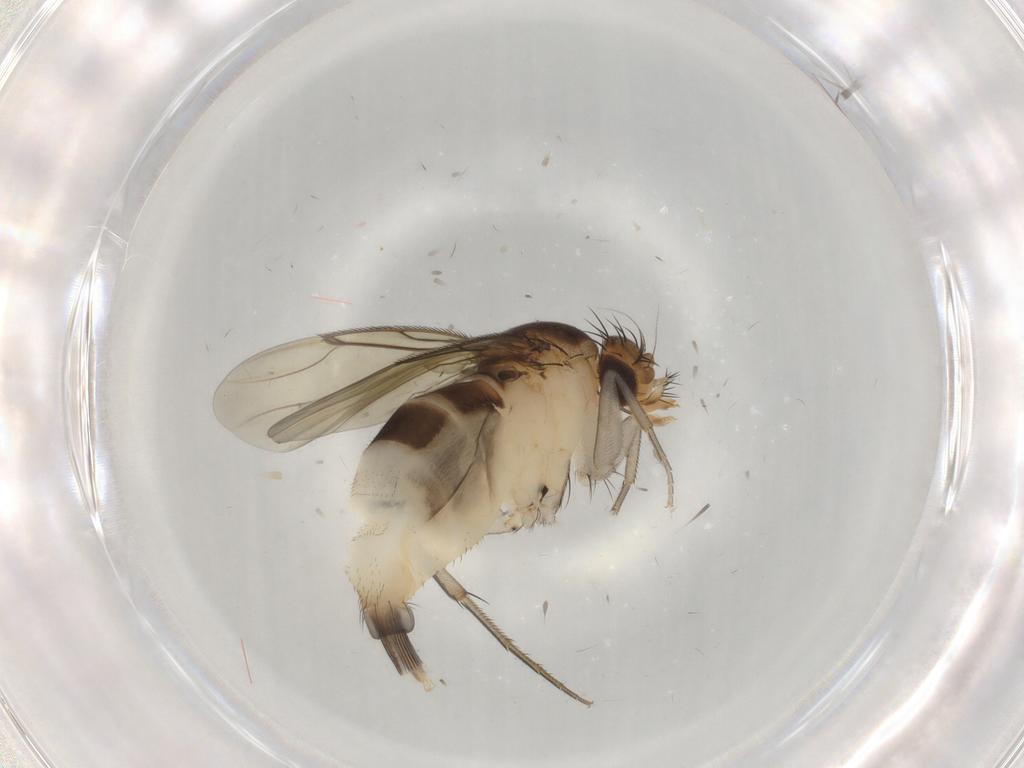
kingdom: Animalia
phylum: Arthropoda
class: Insecta
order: Diptera
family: Phoridae
